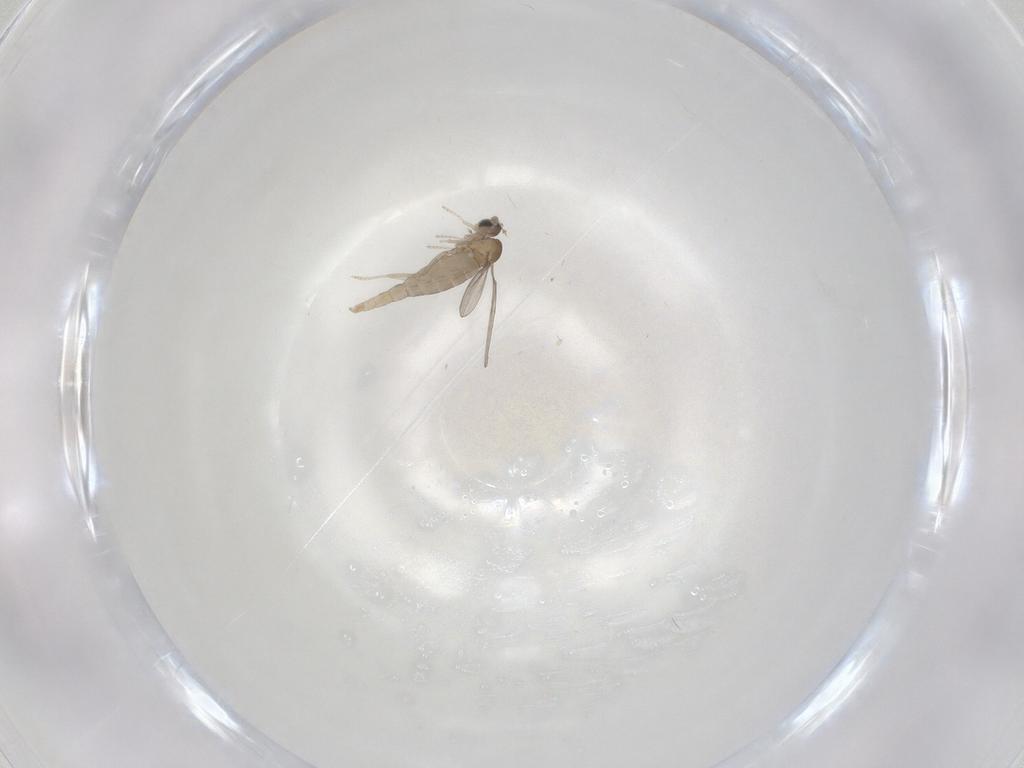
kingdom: Animalia
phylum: Arthropoda
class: Insecta
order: Diptera
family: Cecidomyiidae
